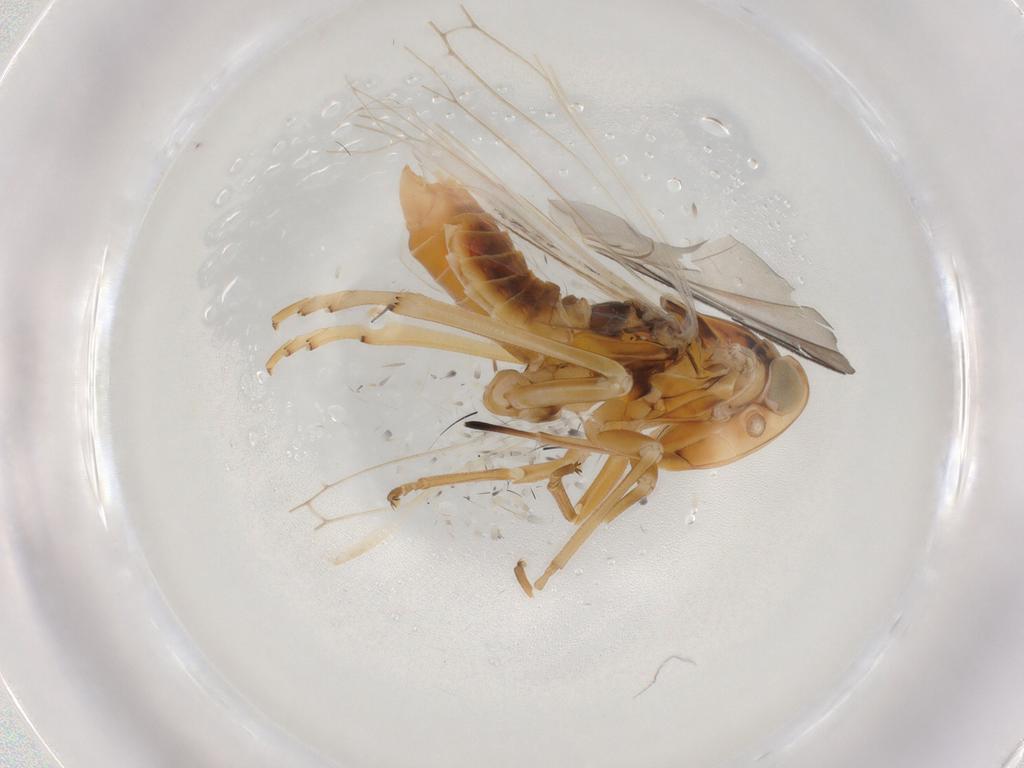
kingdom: Animalia
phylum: Arthropoda
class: Insecta
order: Hemiptera
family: Fulgoroidea_incertae_sedis
